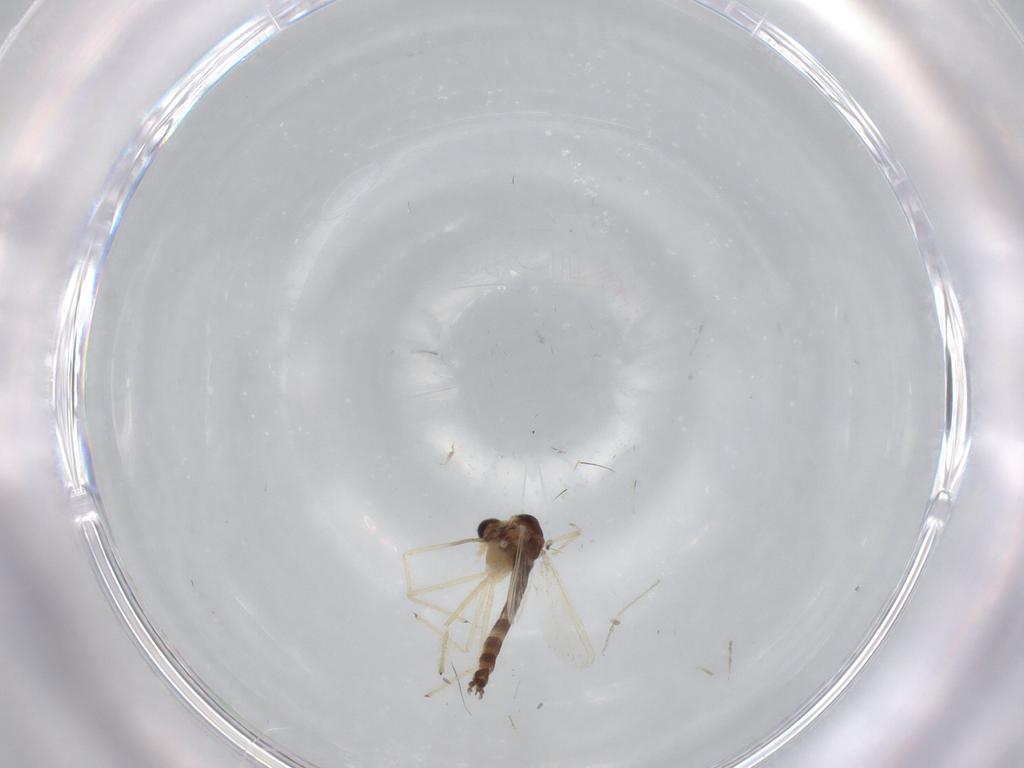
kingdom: Animalia
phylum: Arthropoda
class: Insecta
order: Diptera
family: Chironomidae
